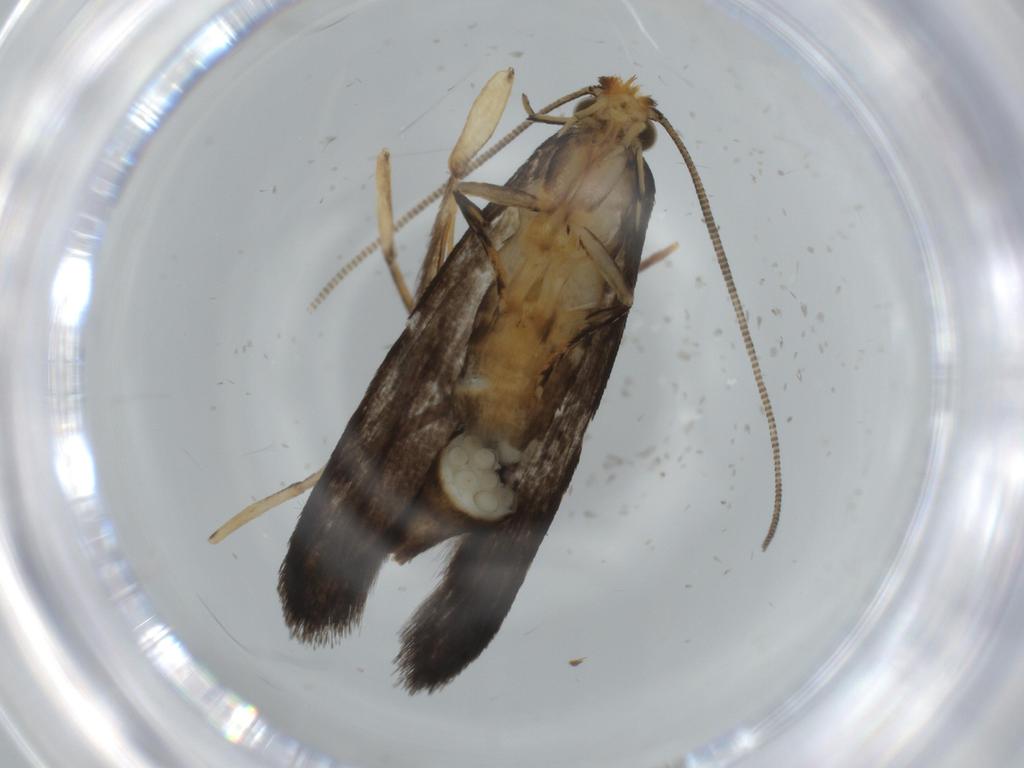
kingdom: Animalia
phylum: Arthropoda
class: Insecta
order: Lepidoptera
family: Tineidae
